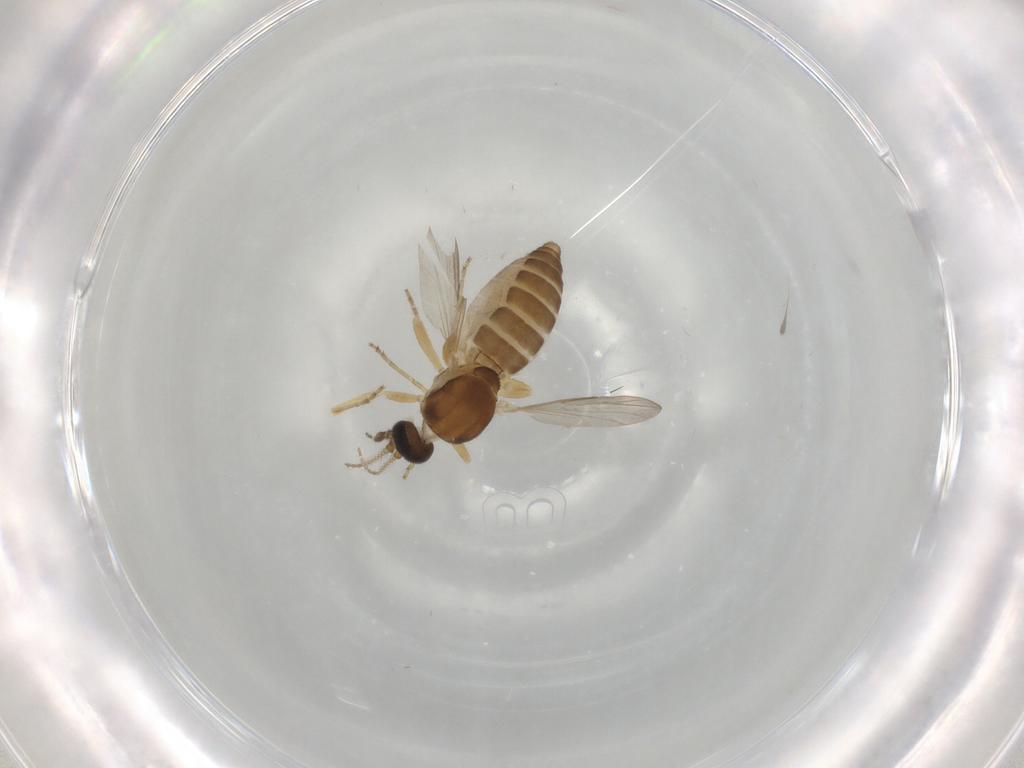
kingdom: Animalia
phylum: Arthropoda
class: Insecta
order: Diptera
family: Ceratopogonidae
